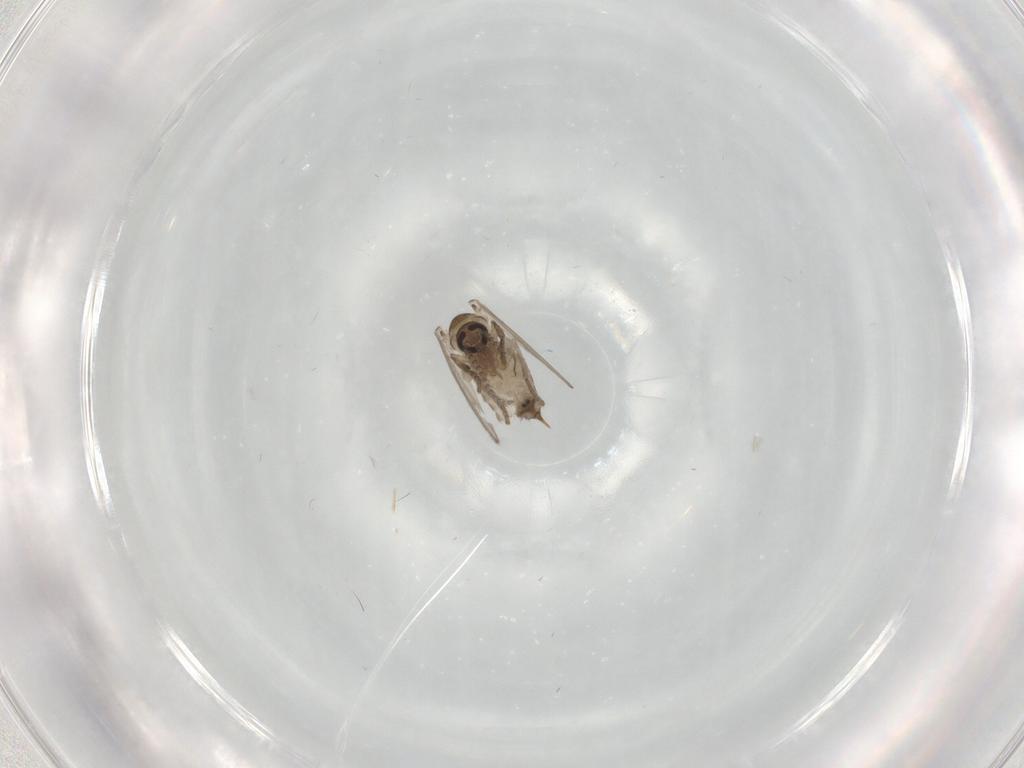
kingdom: Animalia
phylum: Arthropoda
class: Insecta
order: Diptera
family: Psychodidae
